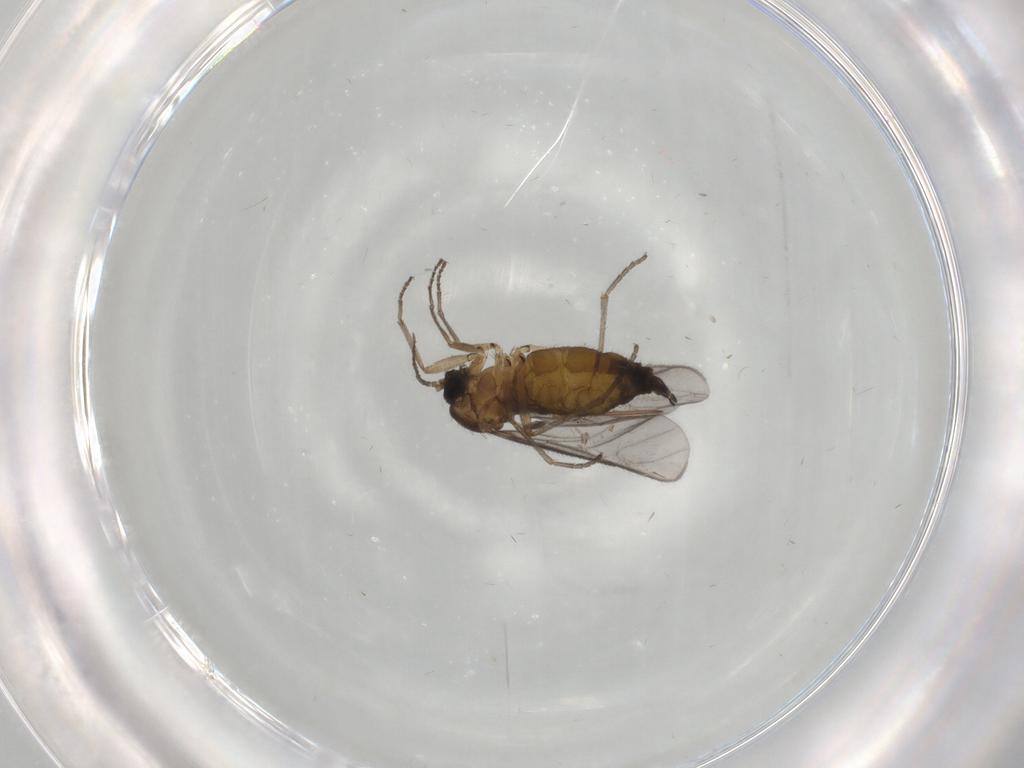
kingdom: Animalia
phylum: Arthropoda
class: Insecta
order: Diptera
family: Sciaridae
